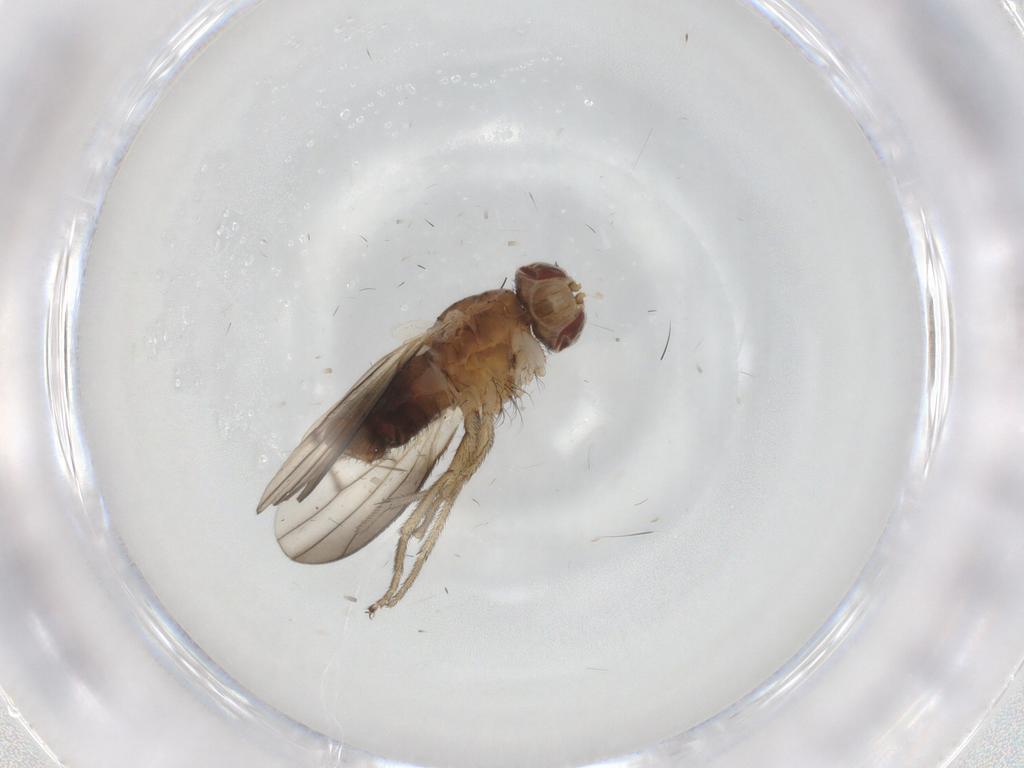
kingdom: Animalia
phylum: Arthropoda
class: Insecta
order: Diptera
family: Heleomyzidae
